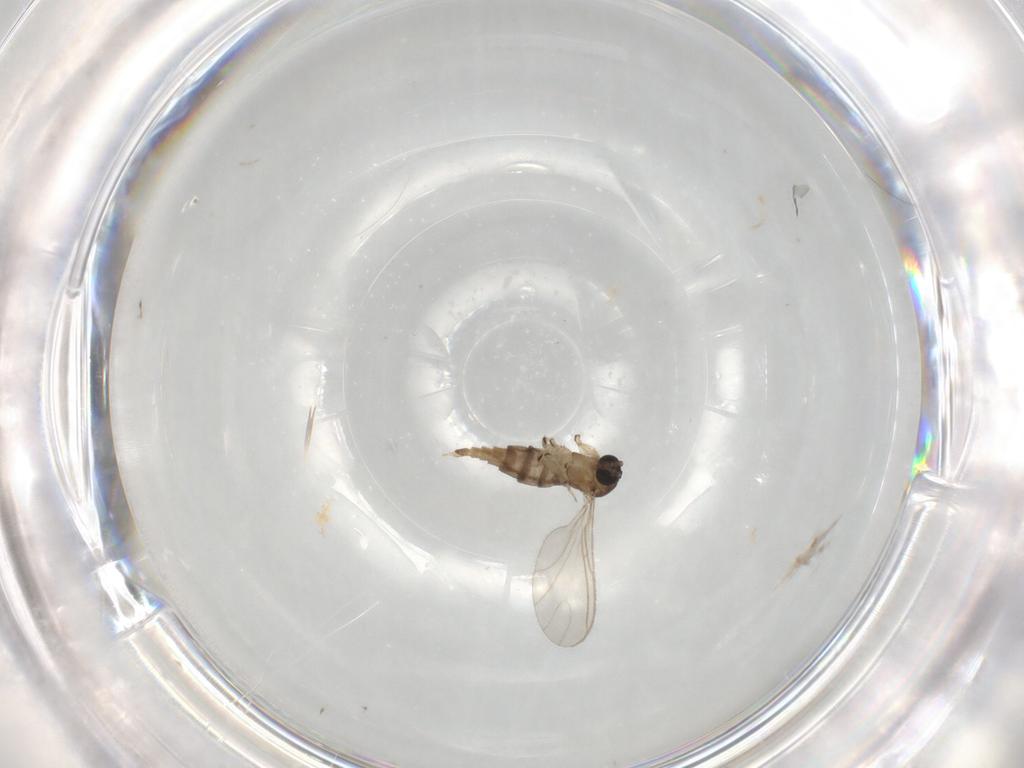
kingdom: Animalia
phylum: Arthropoda
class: Insecta
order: Diptera
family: Sciaridae
